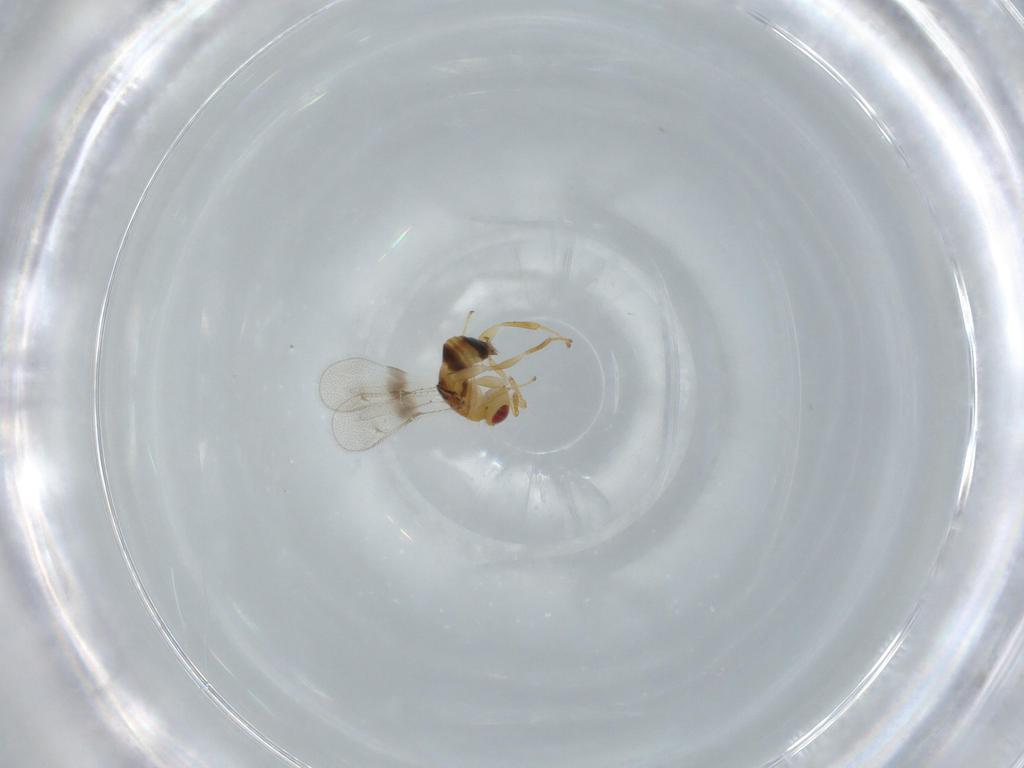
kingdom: Animalia
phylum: Arthropoda
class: Insecta
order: Hymenoptera
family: Torymidae
